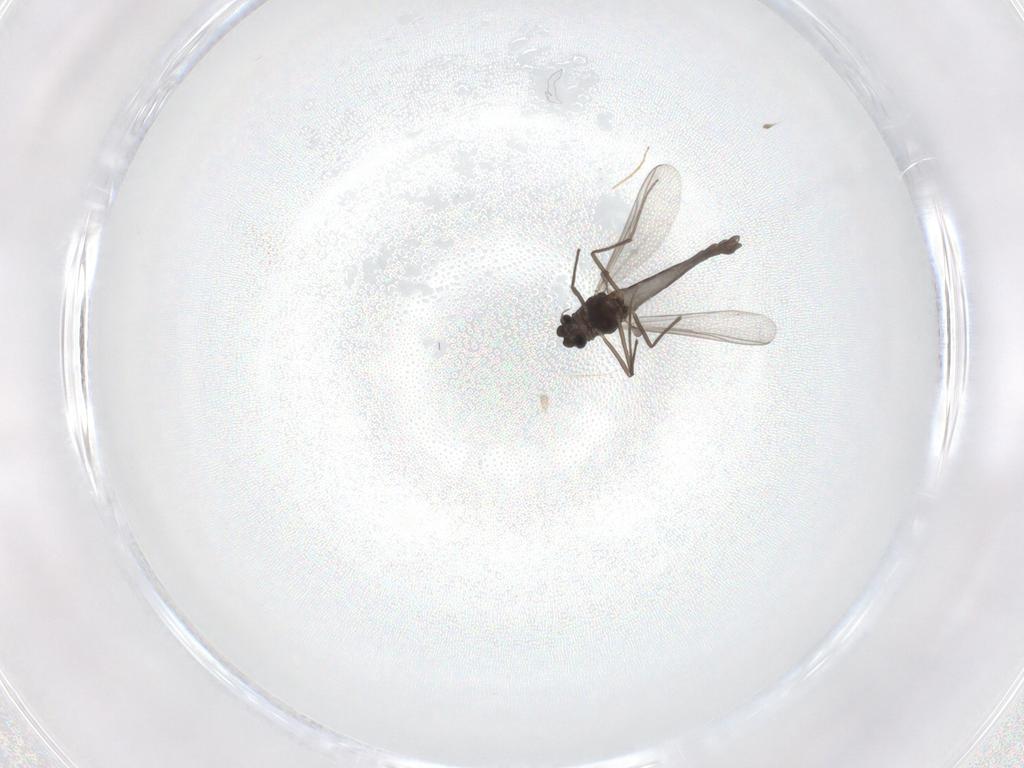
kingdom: Animalia
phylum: Arthropoda
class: Insecta
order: Diptera
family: Chironomidae
